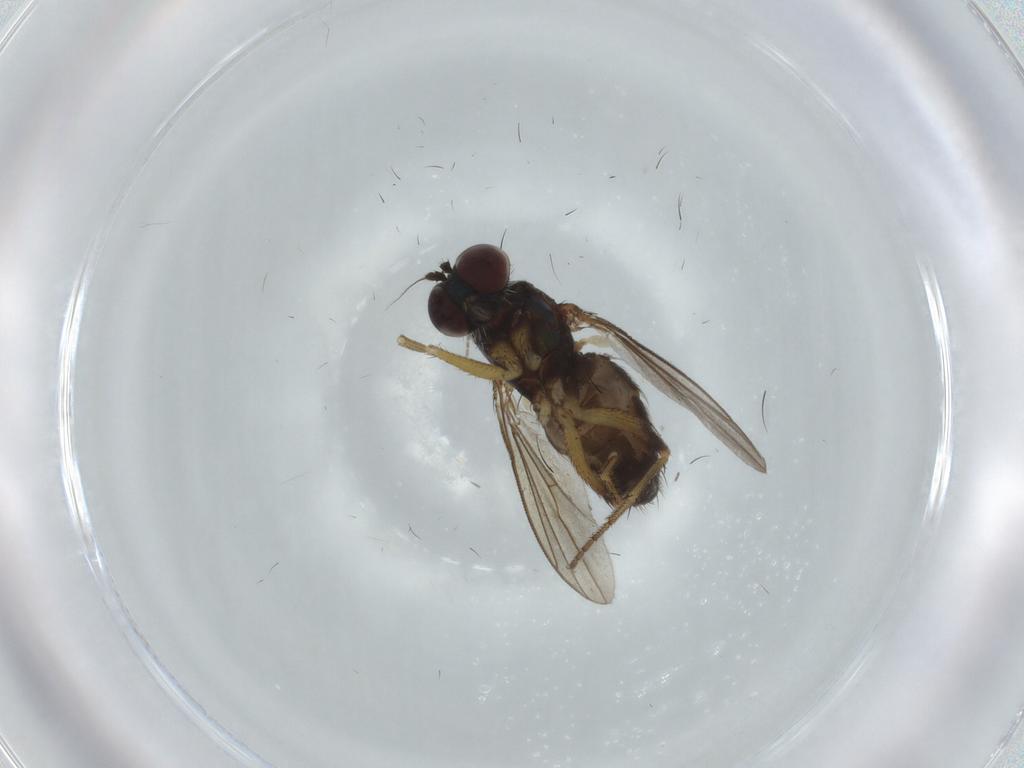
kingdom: Animalia
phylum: Arthropoda
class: Insecta
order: Diptera
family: Dolichopodidae
